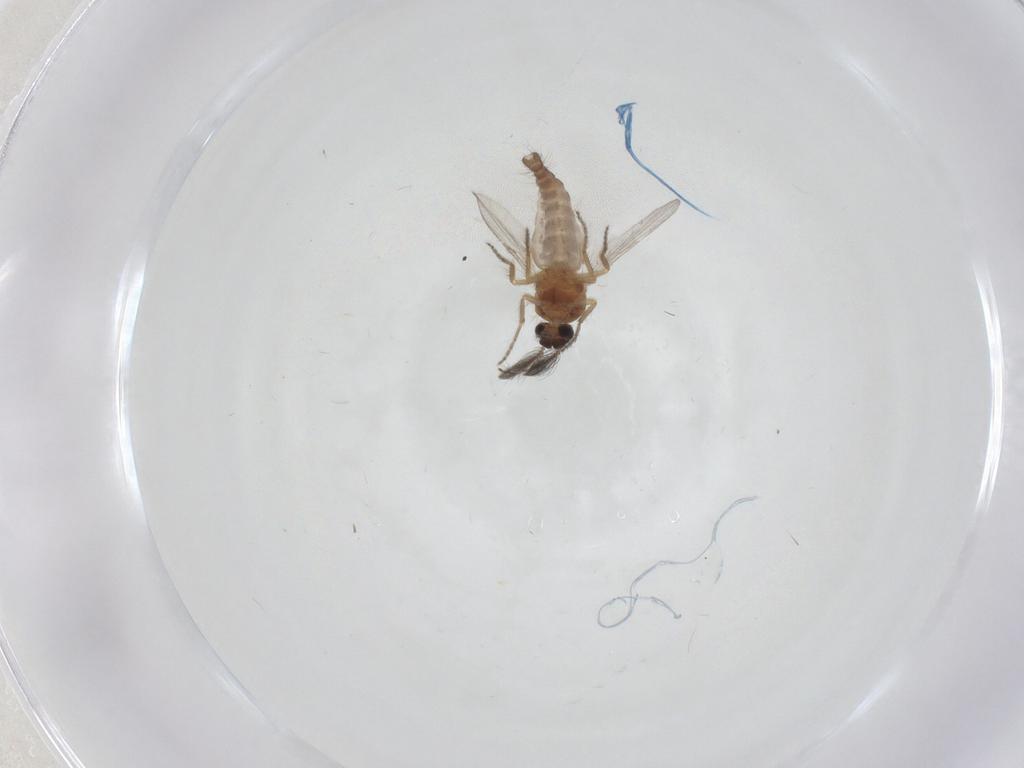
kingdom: Animalia
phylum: Arthropoda
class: Insecta
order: Diptera
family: Ceratopogonidae
